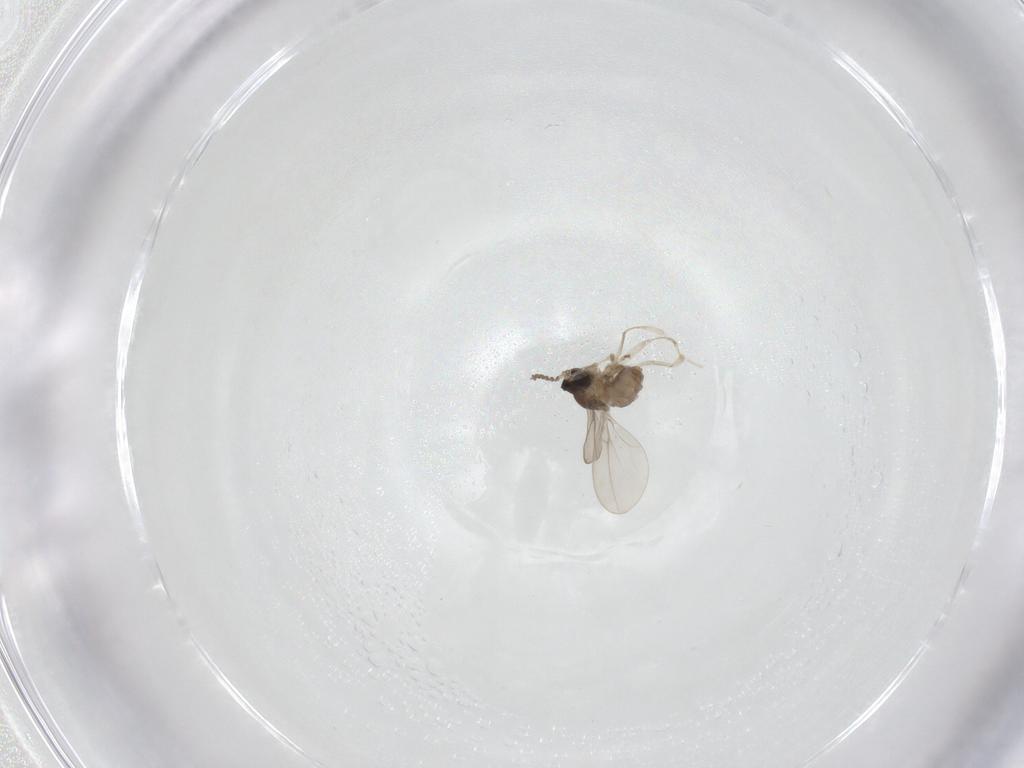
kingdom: Animalia
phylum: Arthropoda
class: Insecta
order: Diptera
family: Cecidomyiidae
